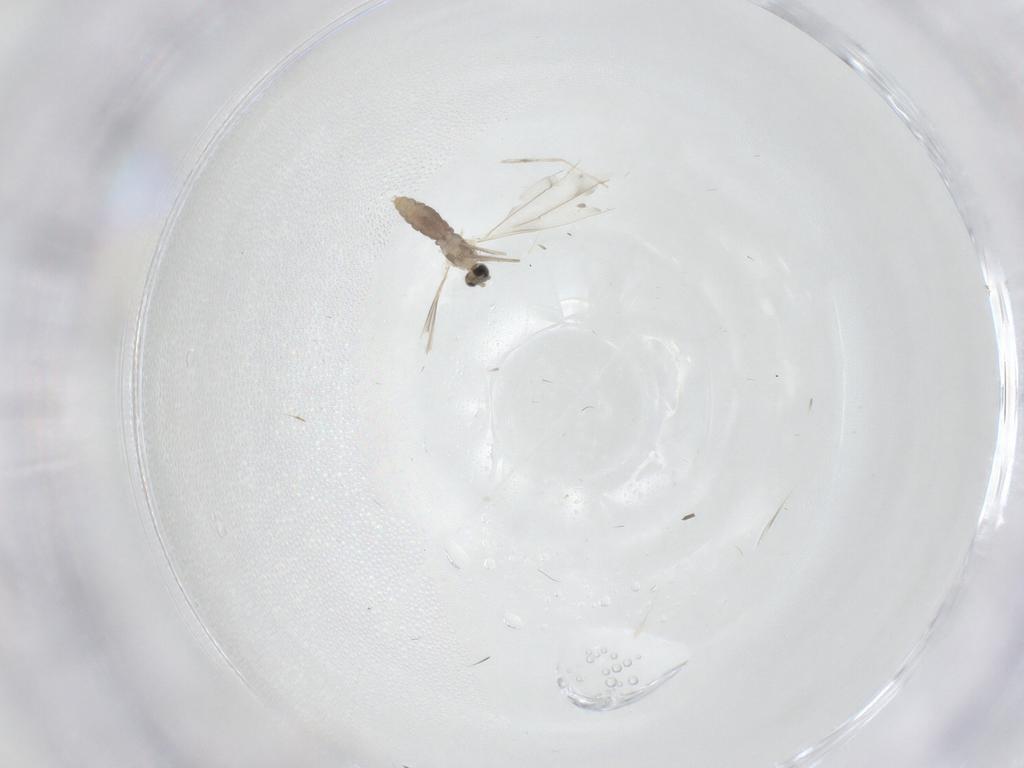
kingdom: Animalia
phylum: Arthropoda
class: Insecta
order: Diptera
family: Cecidomyiidae
